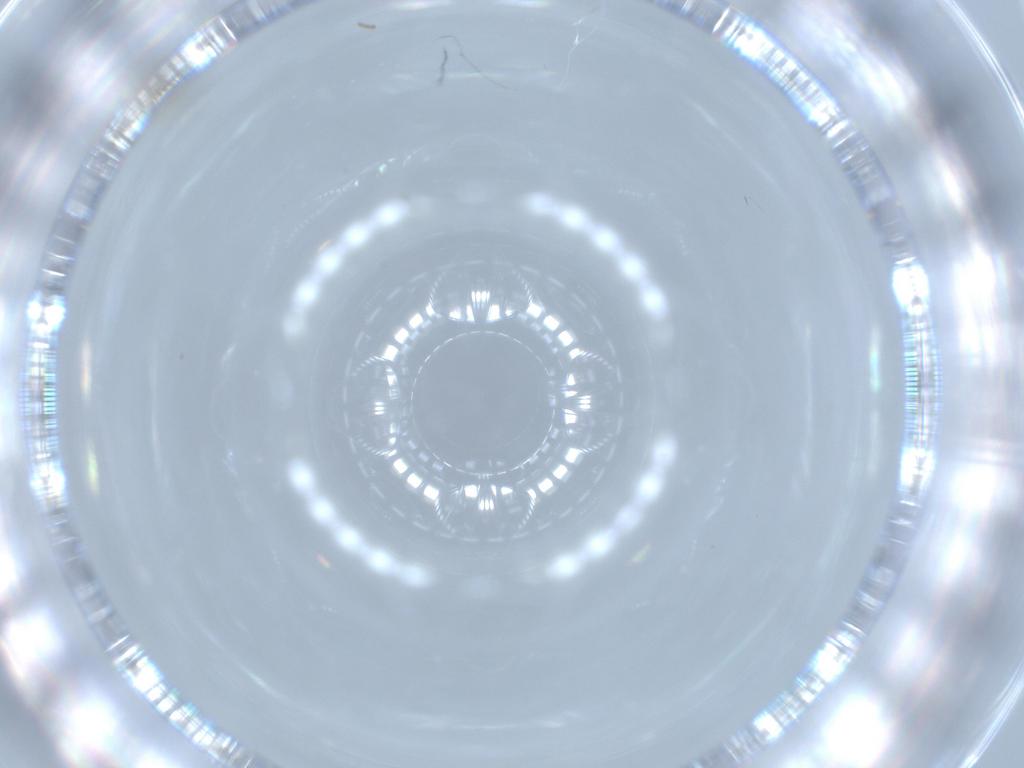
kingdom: Animalia
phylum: Arthropoda
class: Insecta
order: Diptera
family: Cecidomyiidae
